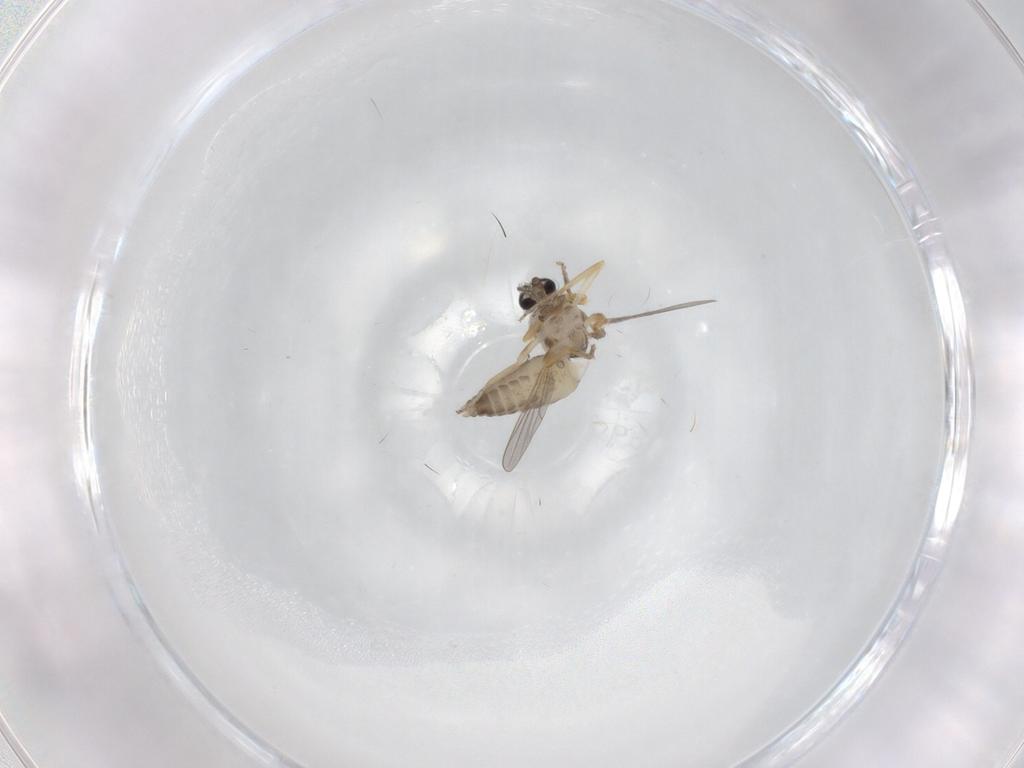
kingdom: Animalia
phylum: Arthropoda
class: Insecta
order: Diptera
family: Ceratopogonidae
